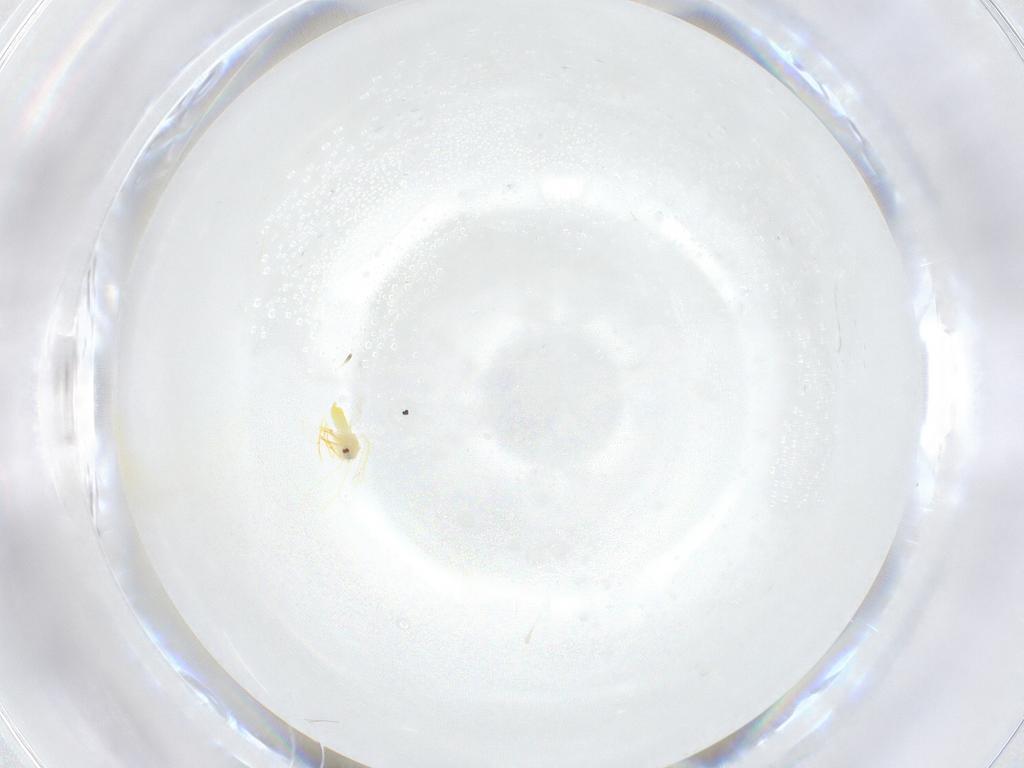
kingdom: Animalia
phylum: Arthropoda
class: Insecta
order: Hemiptera
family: Aleyrodidae
